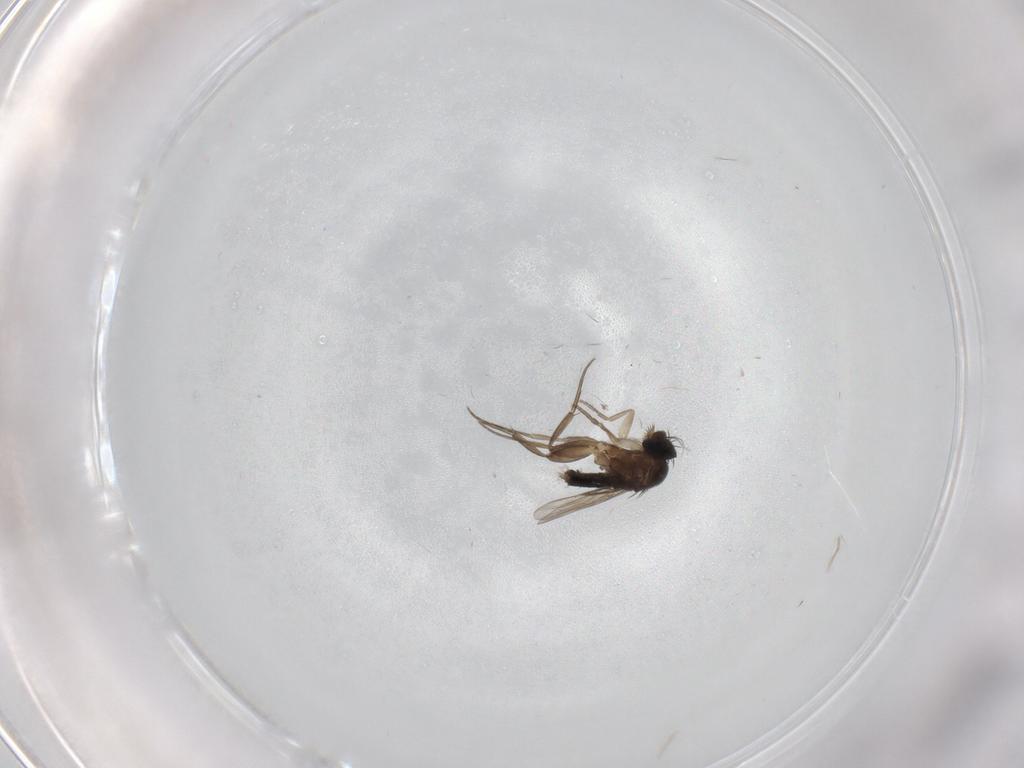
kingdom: Animalia
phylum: Arthropoda
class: Insecta
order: Diptera
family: Phoridae
